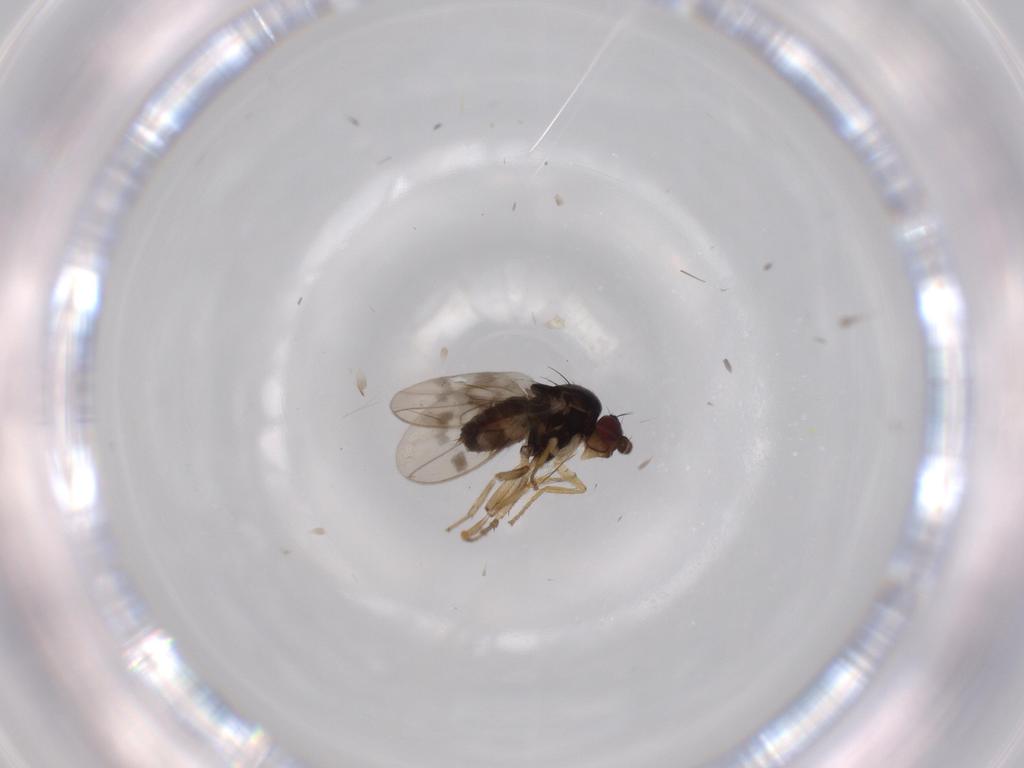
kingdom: Animalia
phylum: Arthropoda
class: Insecta
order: Diptera
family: Sphaeroceridae
